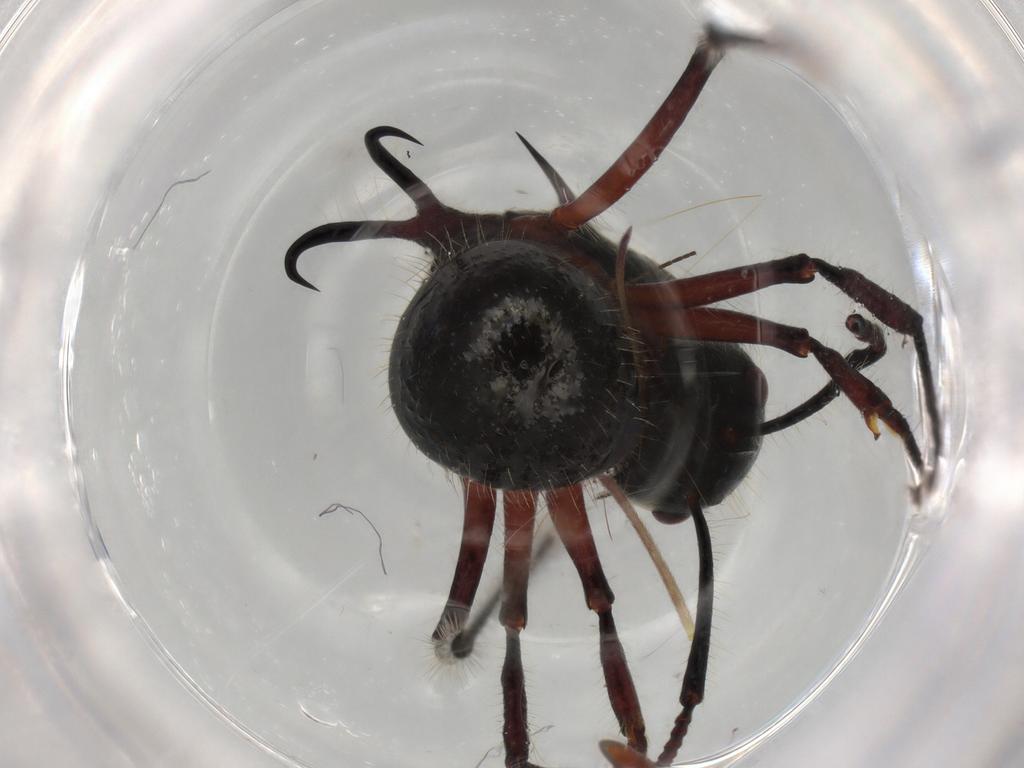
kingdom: Animalia
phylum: Arthropoda
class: Insecta
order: Hymenoptera
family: Formicidae
